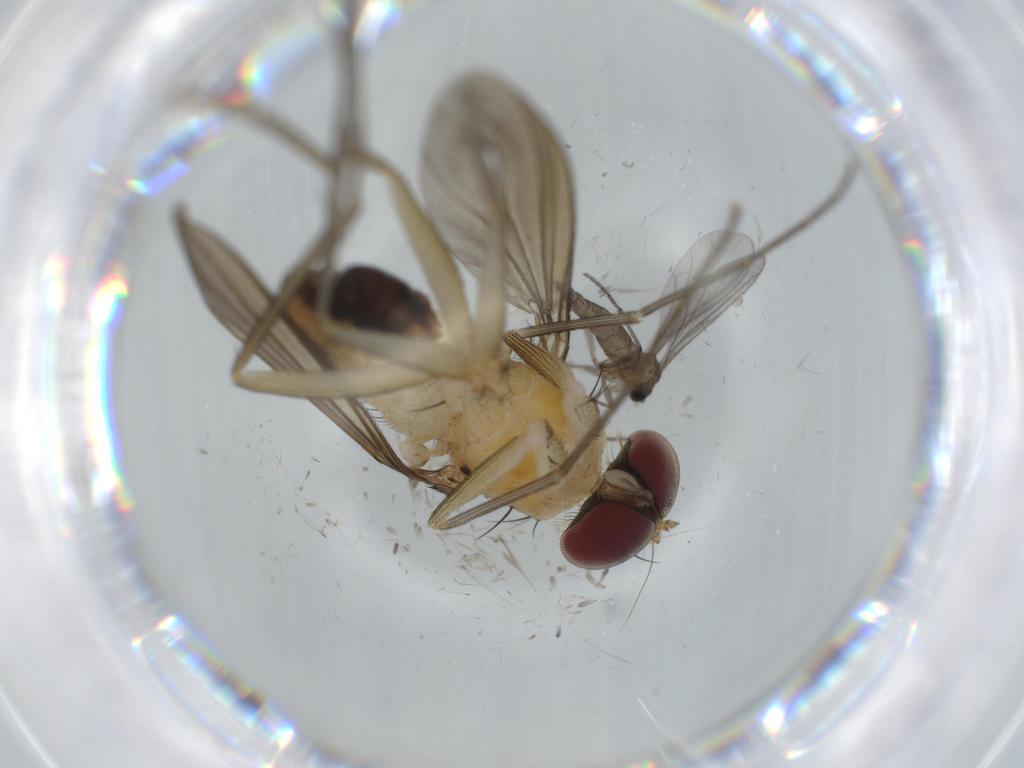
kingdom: Animalia
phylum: Arthropoda
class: Insecta
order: Diptera
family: Dolichopodidae
